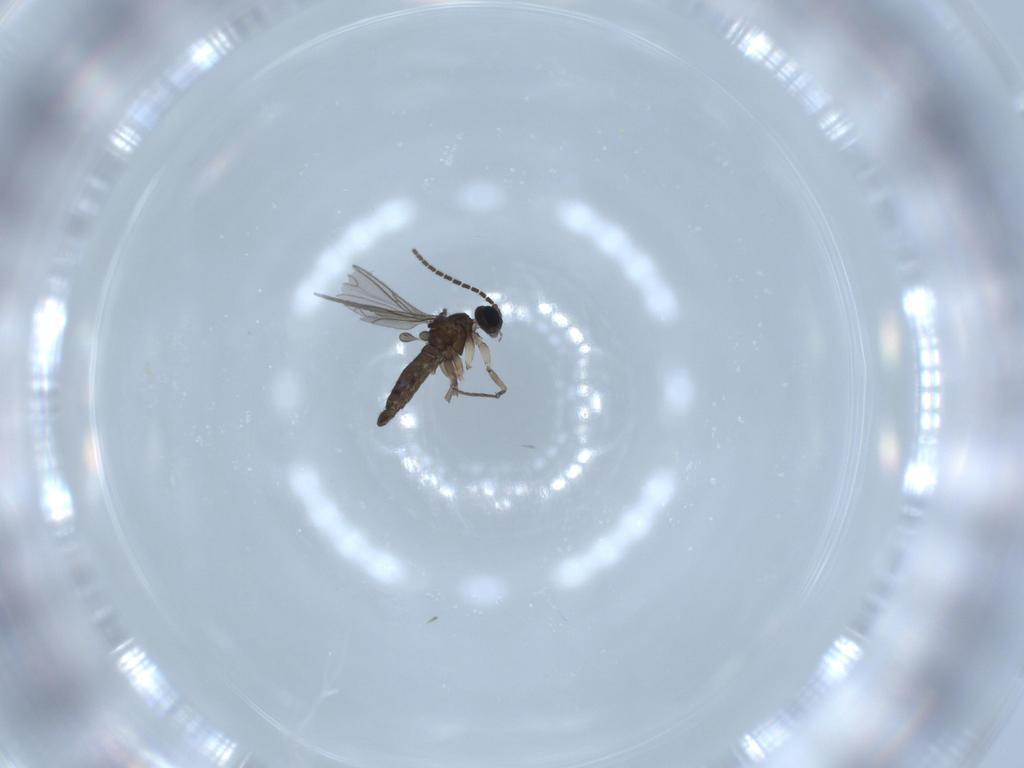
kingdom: Animalia
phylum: Arthropoda
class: Insecta
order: Diptera
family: Sciaridae
